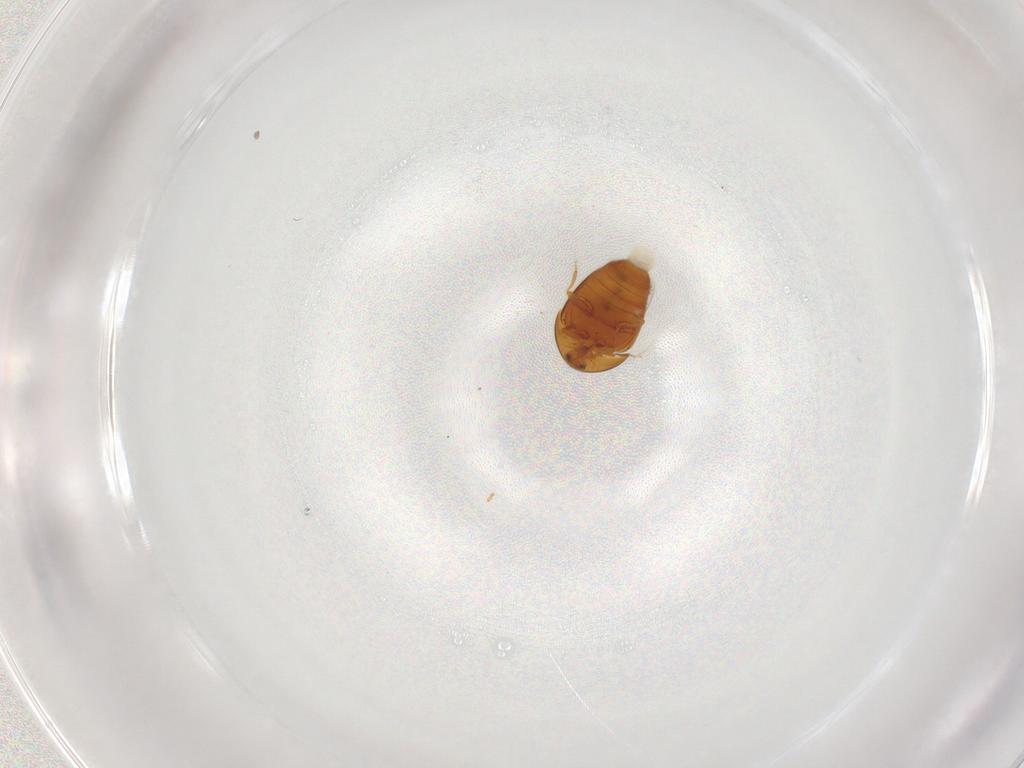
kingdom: Animalia
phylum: Arthropoda
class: Insecta
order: Coleoptera
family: Corylophidae
